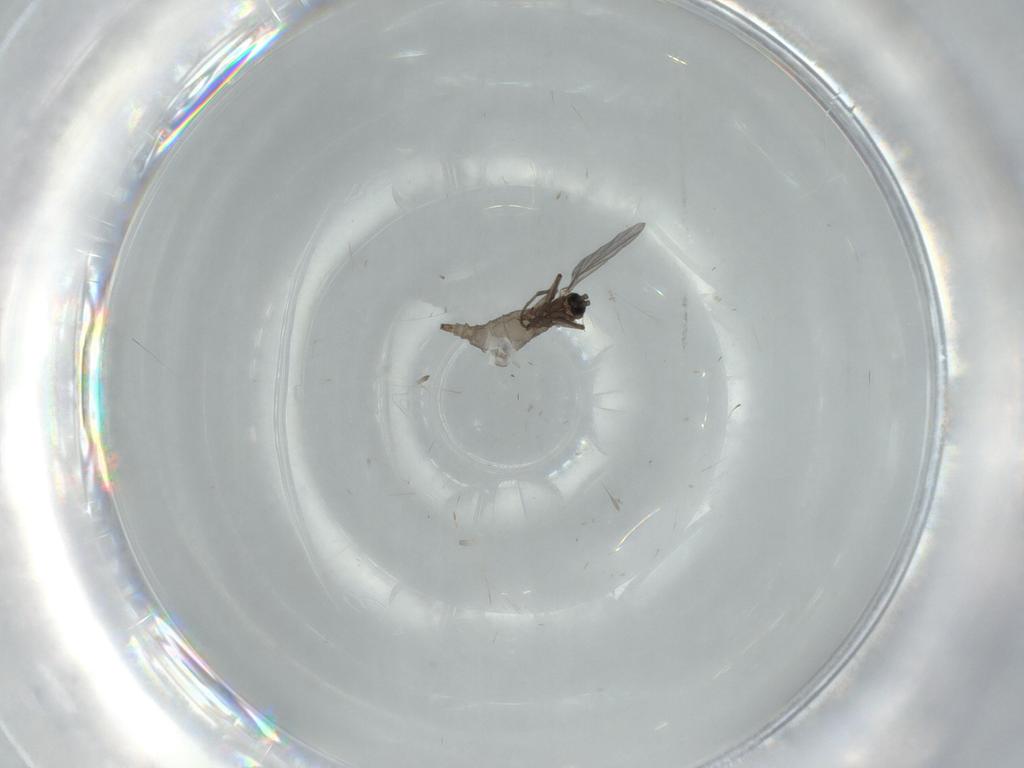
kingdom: Animalia
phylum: Arthropoda
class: Insecta
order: Diptera
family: Sciaridae
